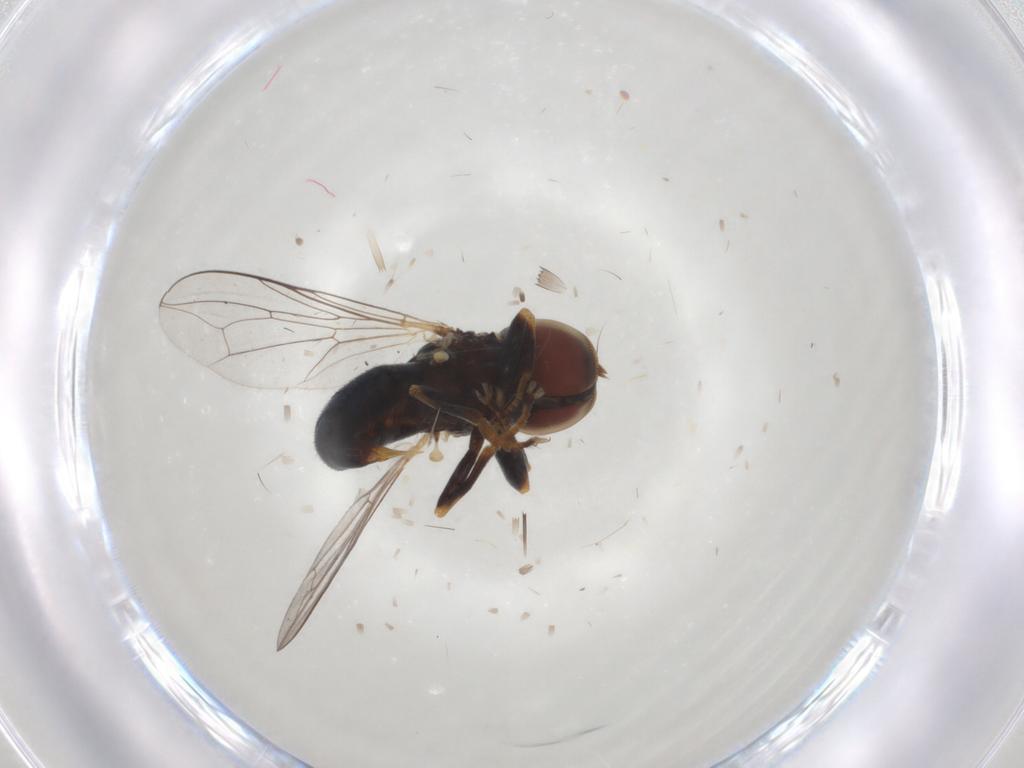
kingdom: Animalia
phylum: Arthropoda
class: Insecta
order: Diptera
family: Pipunculidae
